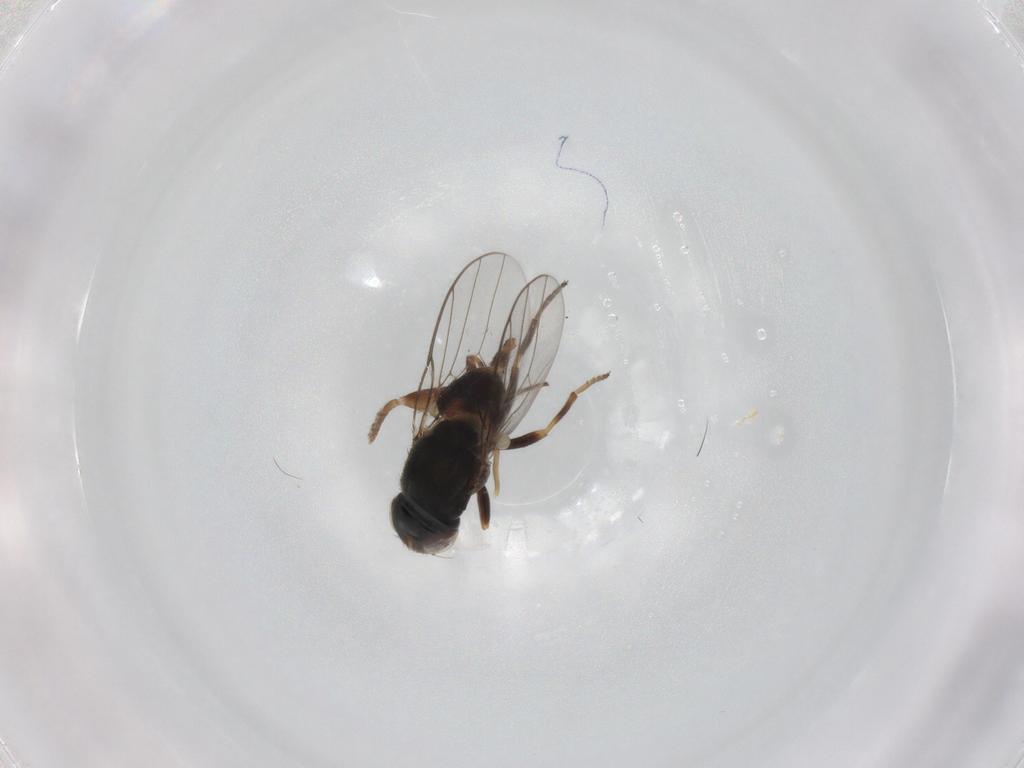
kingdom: Animalia
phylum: Arthropoda
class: Insecta
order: Diptera
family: Chloropidae
